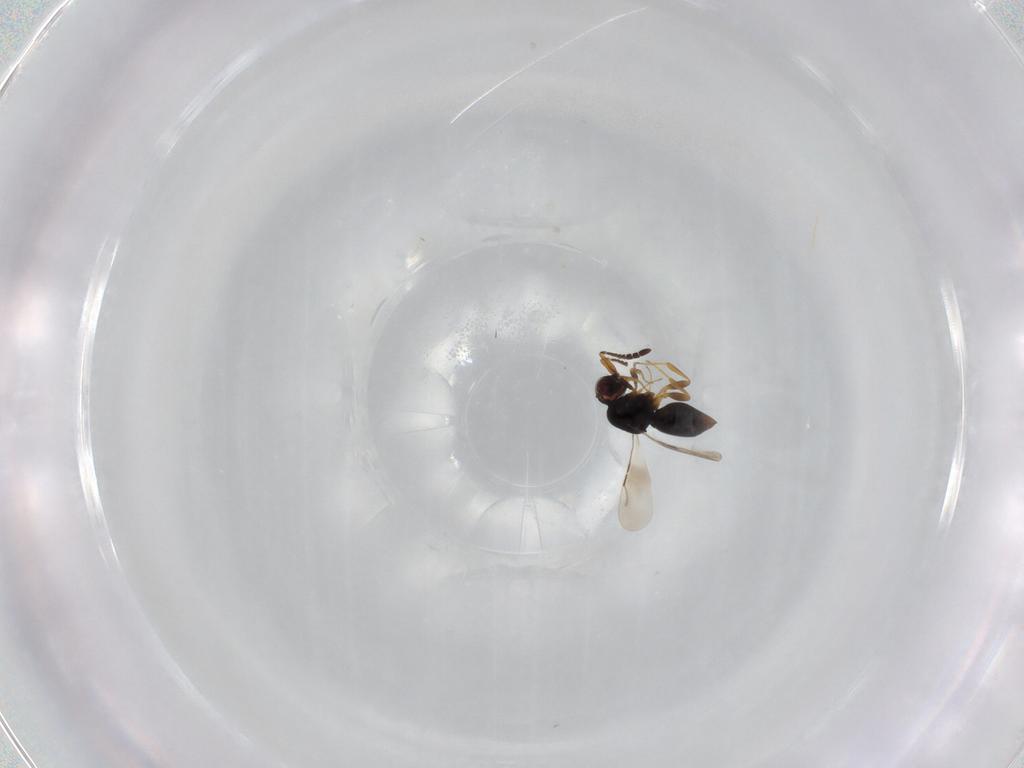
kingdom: Animalia
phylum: Arthropoda
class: Insecta
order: Hymenoptera
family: Ceraphronidae
